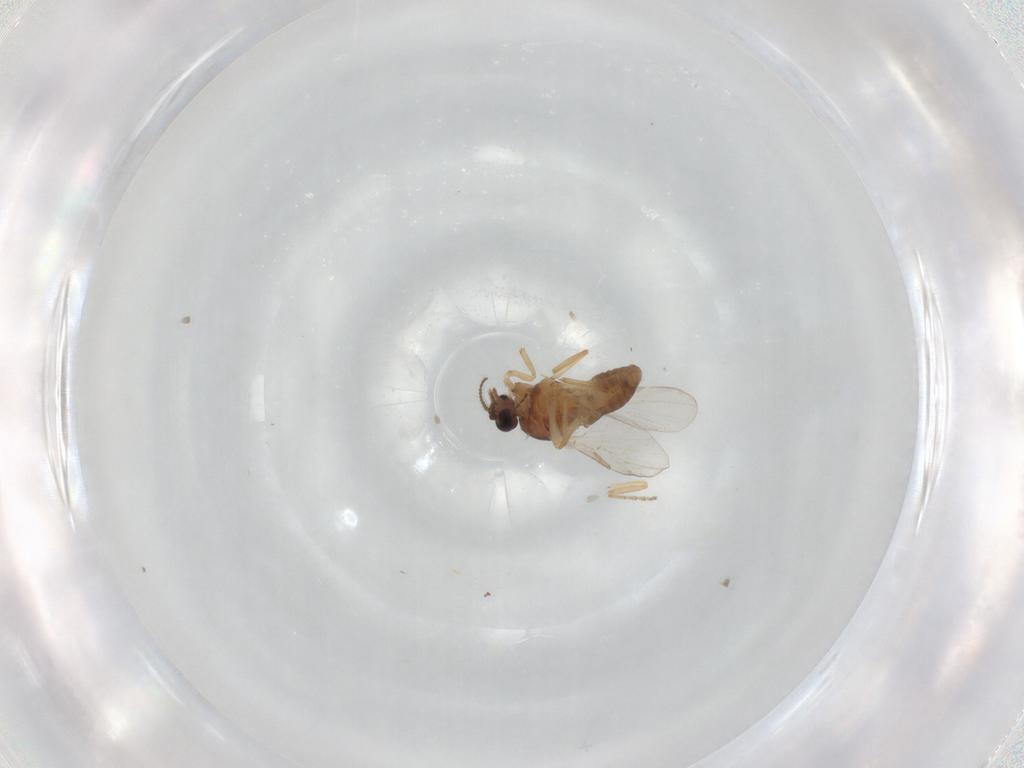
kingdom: Animalia
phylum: Arthropoda
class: Insecta
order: Diptera
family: Ceratopogonidae
